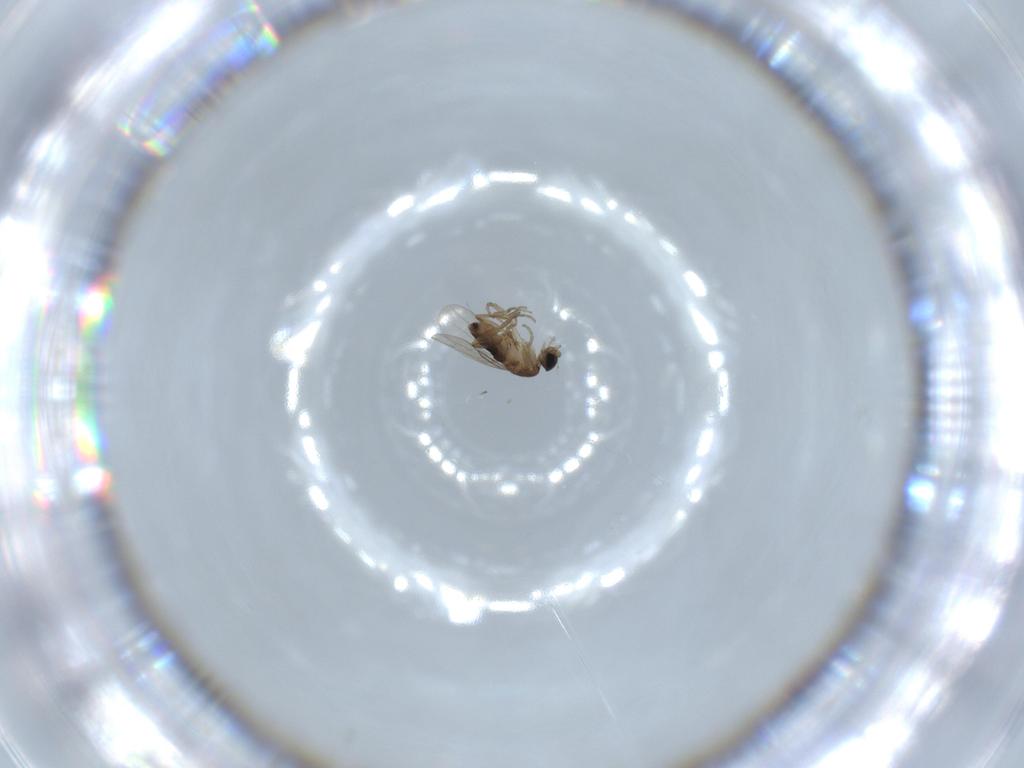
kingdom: Animalia
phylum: Arthropoda
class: Insecta
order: Diptera
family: Phoridae
